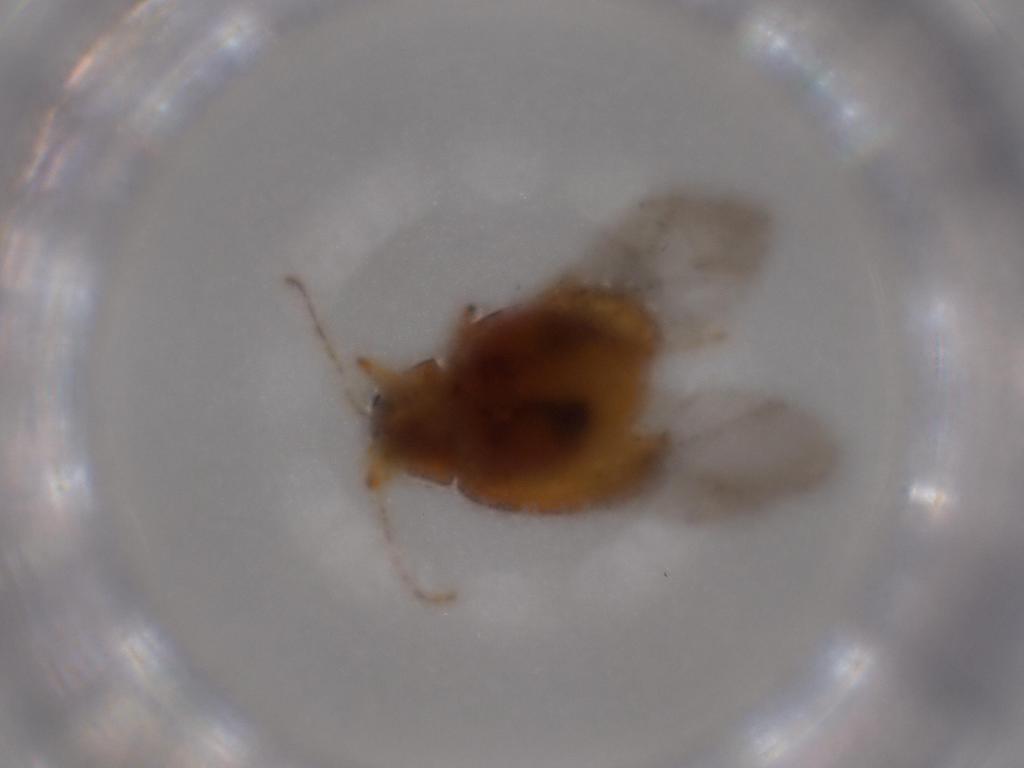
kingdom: Animalia
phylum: Arthropoda
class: Insecta
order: Coleoptera
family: Chrysomelidae
